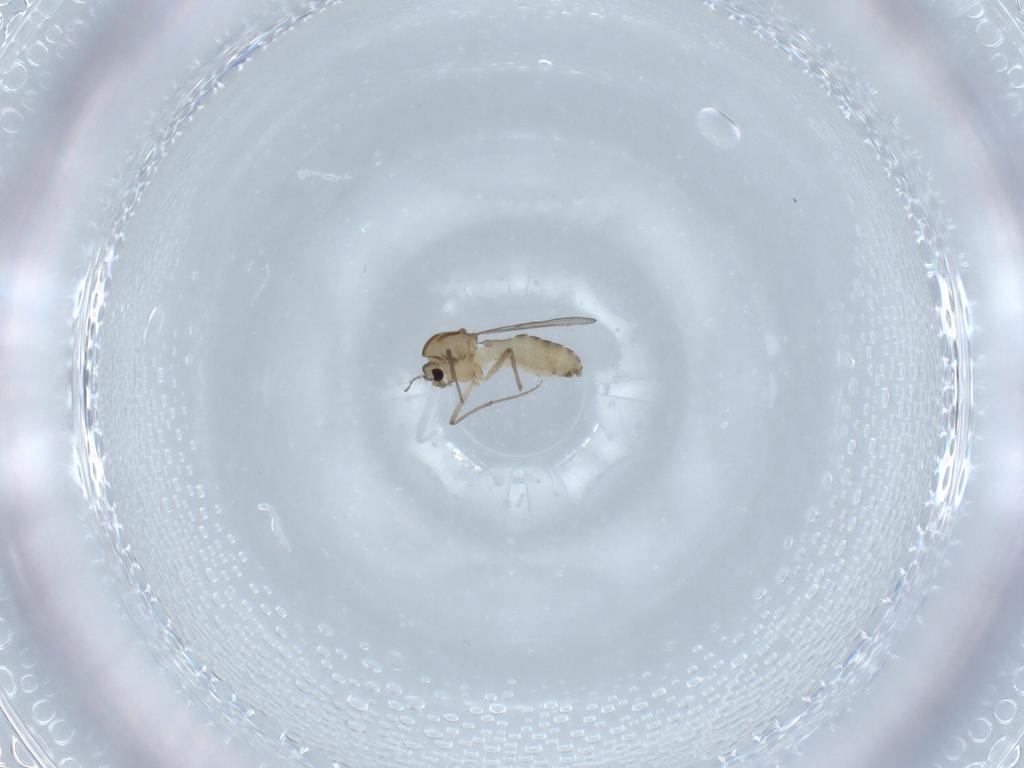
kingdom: Animalia
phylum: Arthropoda
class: Insecta
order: Diptera
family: Chironomidae
